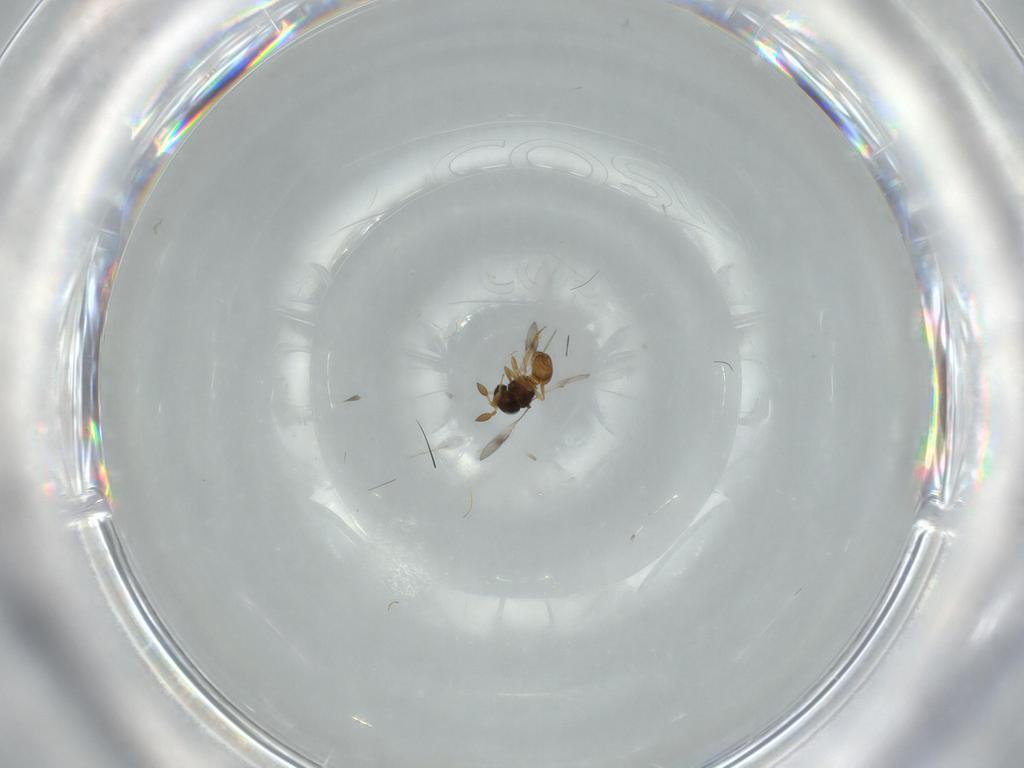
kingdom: Animalia
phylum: Arthropoda
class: Insecta
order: Hymenoptera
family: Scelionidae
